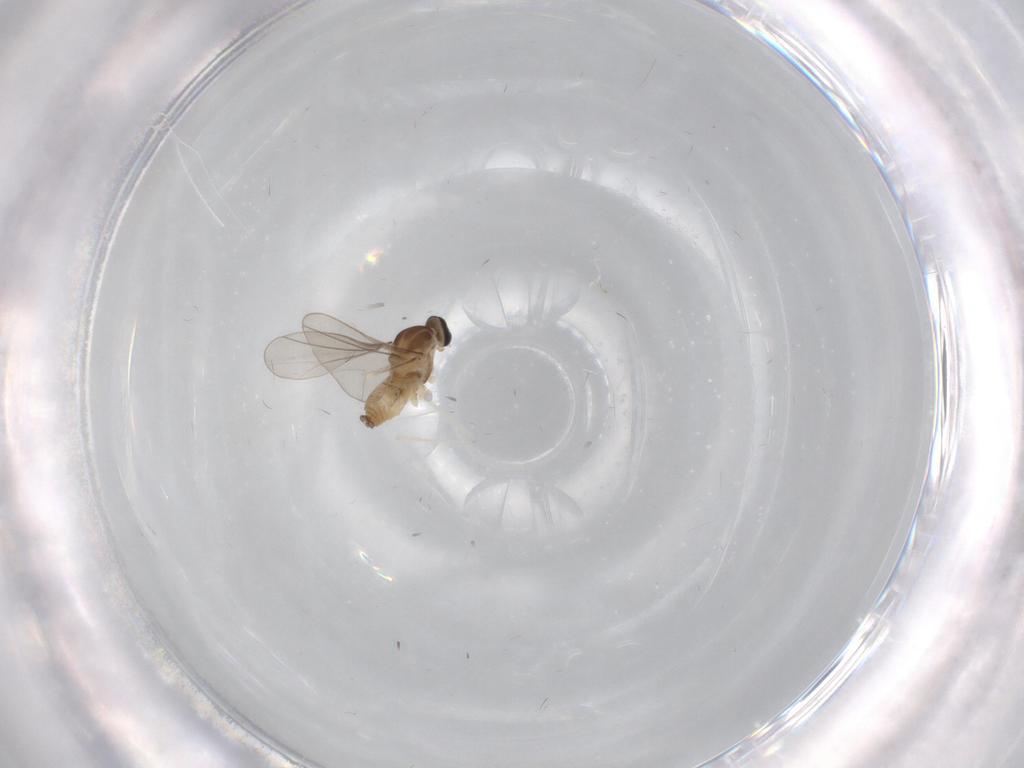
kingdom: Animalia
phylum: Arthropoda
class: Insecta
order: Diptera
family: Cecidomyiidae
